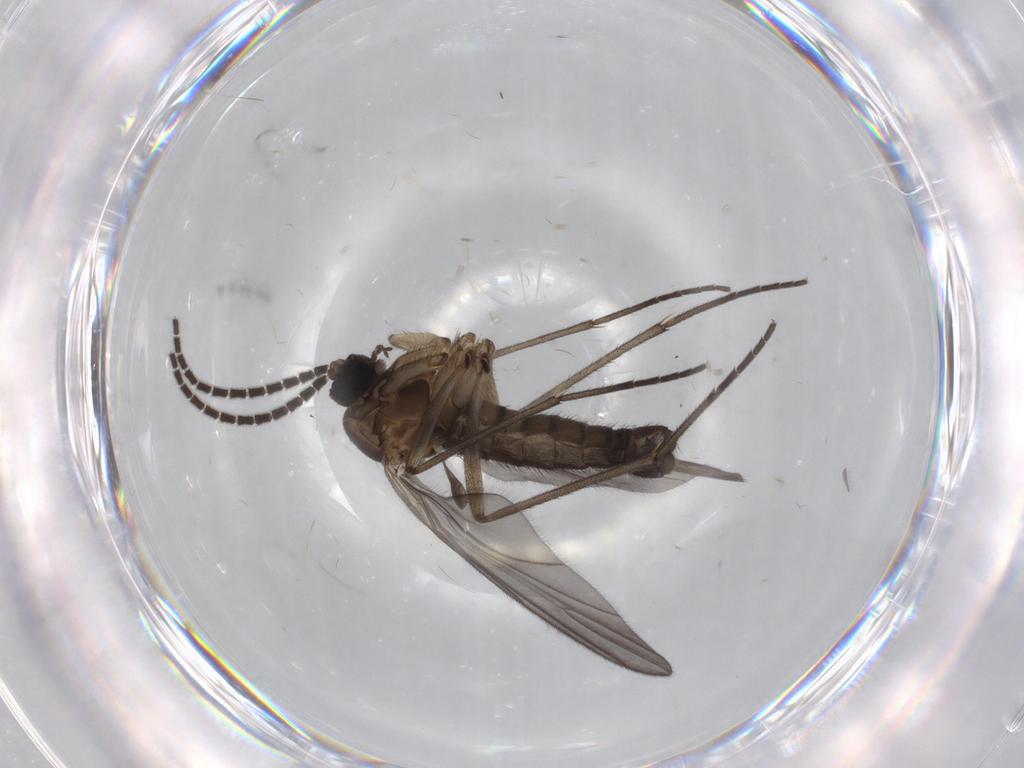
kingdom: Animalia
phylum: Arthropoda
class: Insecta
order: Diptera
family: Sciaridae
